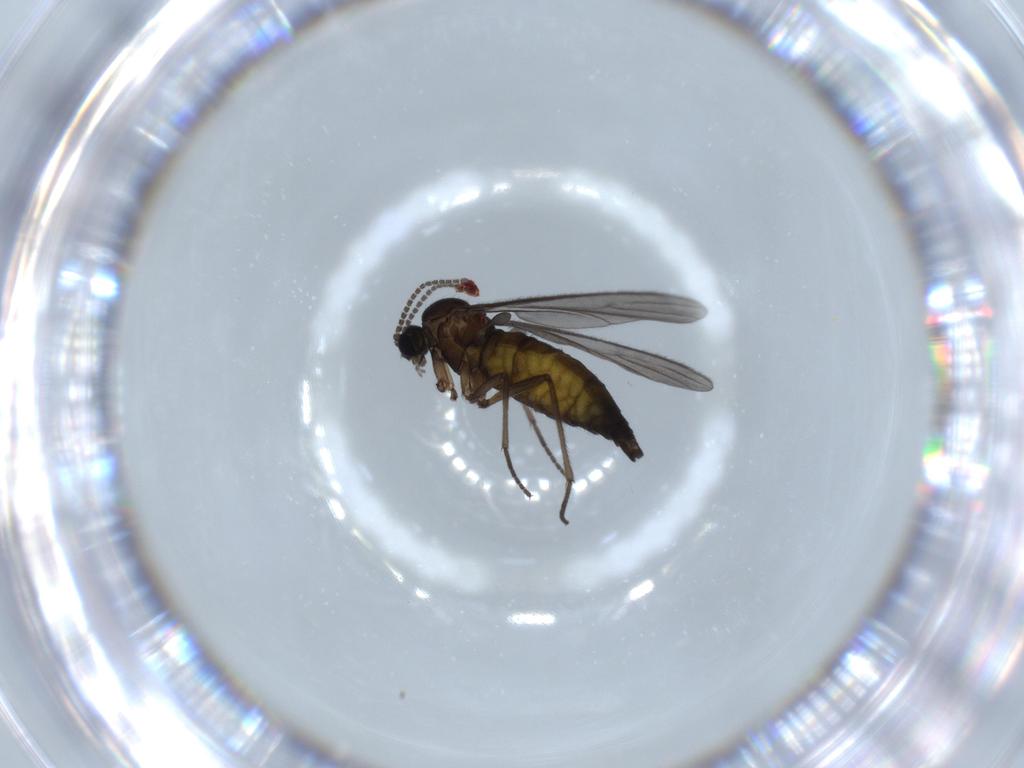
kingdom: Animalia
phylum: Arthropoda
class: Insecta
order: Diptera
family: Sciaridae
